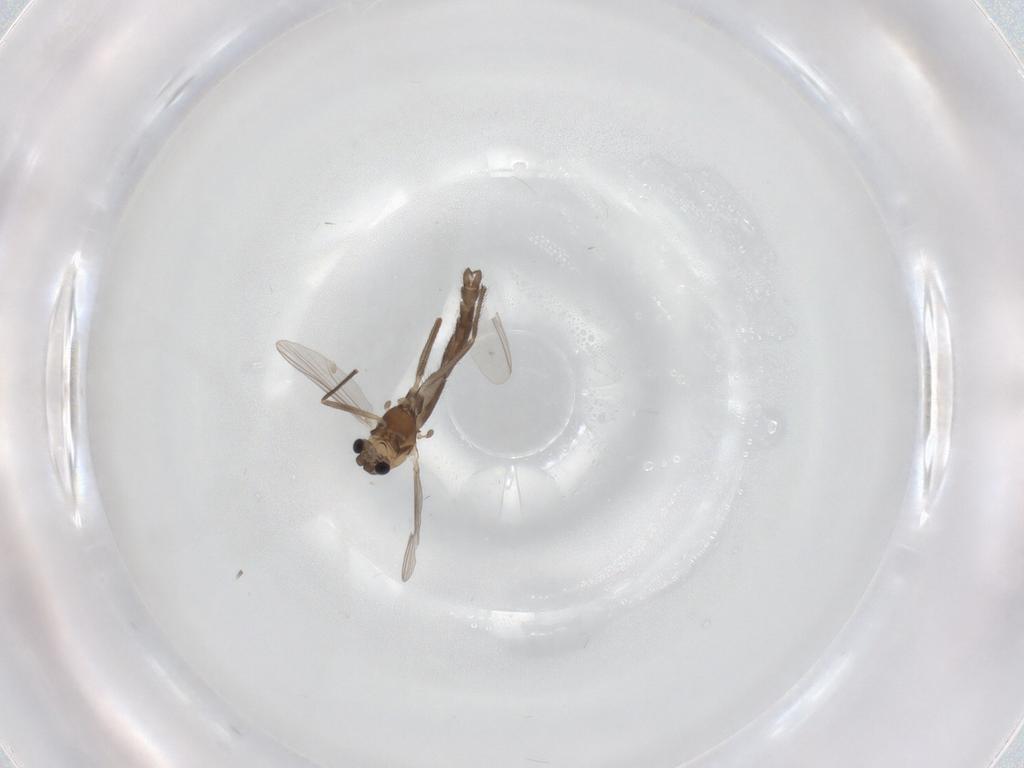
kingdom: Animalia
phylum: Arthropoda
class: Insecta
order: Diptera
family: Chironomidae
